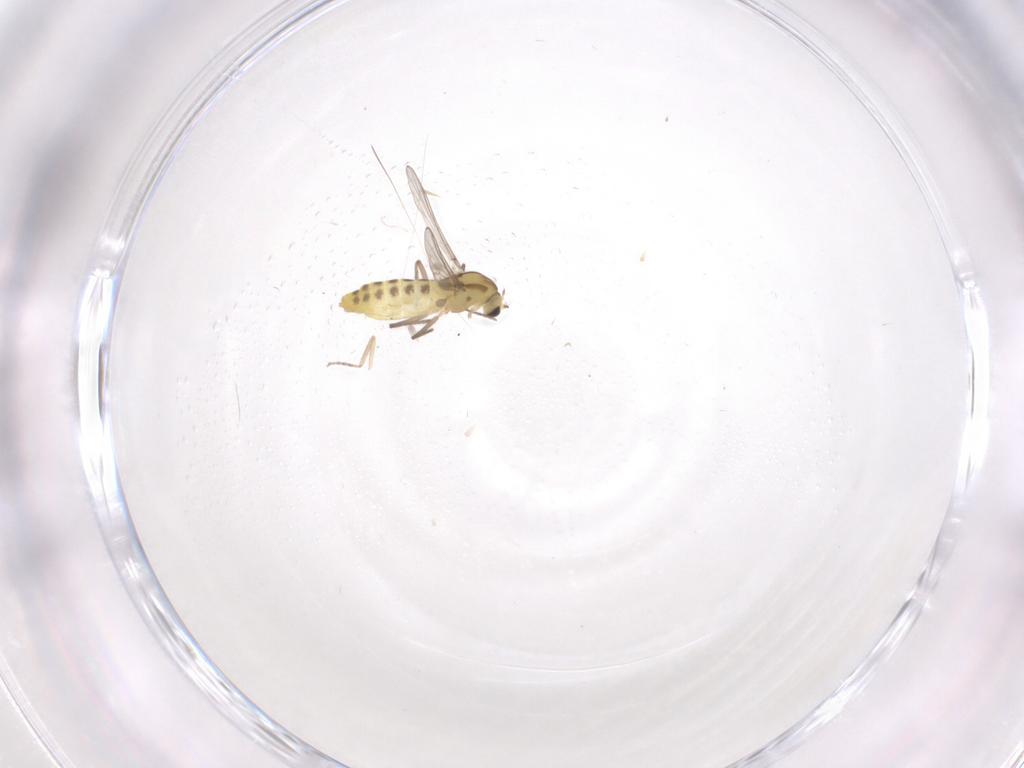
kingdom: Animalia
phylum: Arthropoda
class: Insecta
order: Diptera
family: Chironomidae
